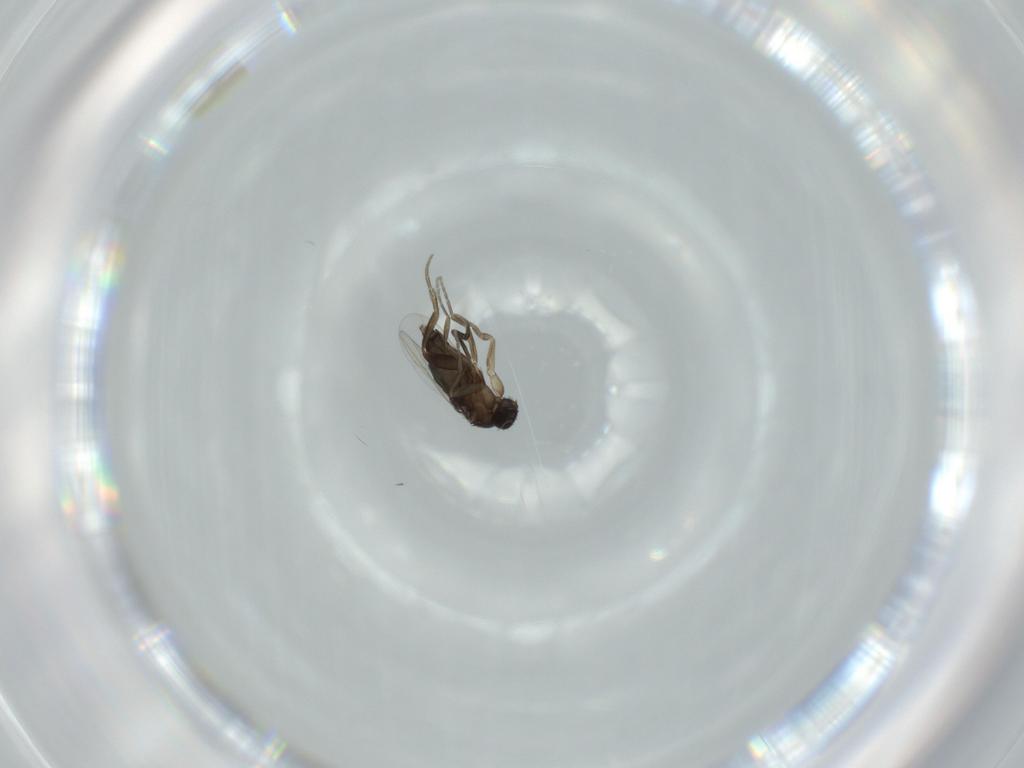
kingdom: Animalia
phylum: Arthropoda
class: Insecta
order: Diptera
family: Phoridae
